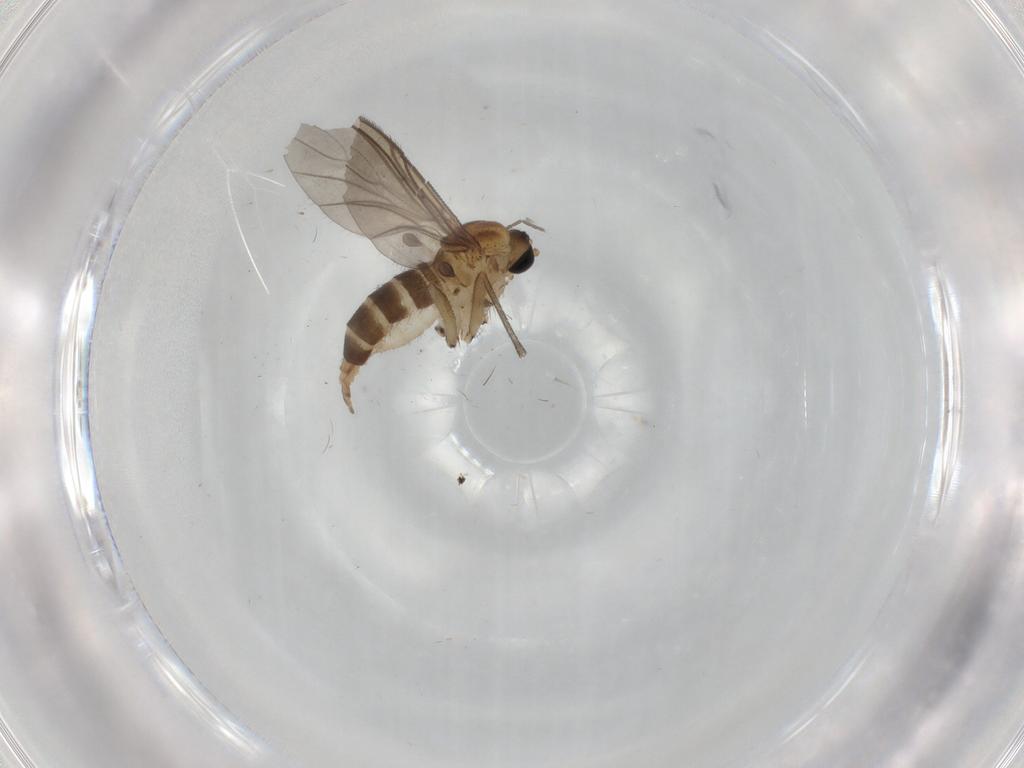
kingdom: Animalia
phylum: Arthropoda
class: Insecta
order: Diptera
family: Sciaridae
